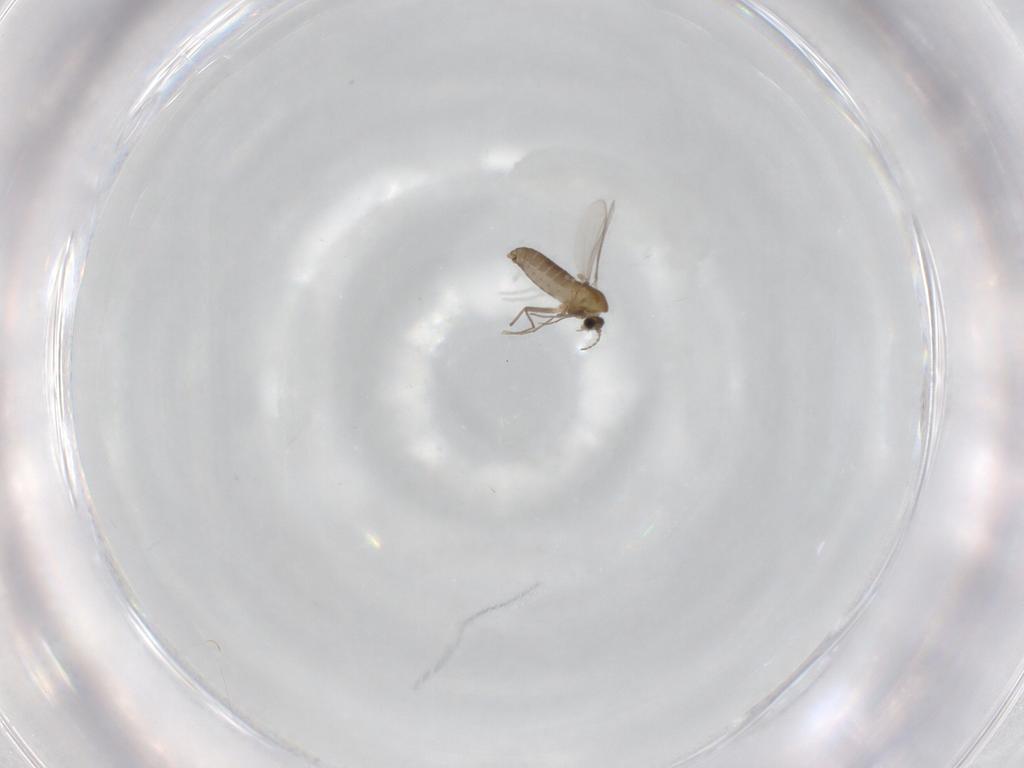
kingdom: Animalia
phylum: Arthropoda
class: Insecta
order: Diptera
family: Chironomidae
